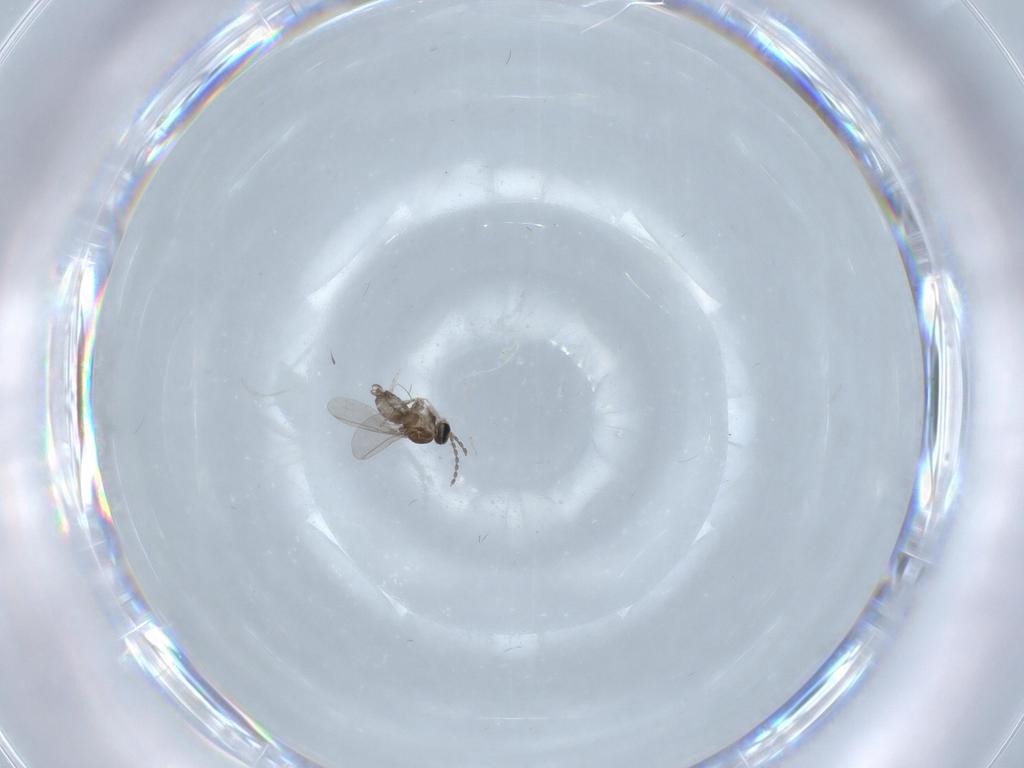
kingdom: Animalia
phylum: Arthropoda
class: Insecta
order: Diptera
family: Cecidomyiidae
